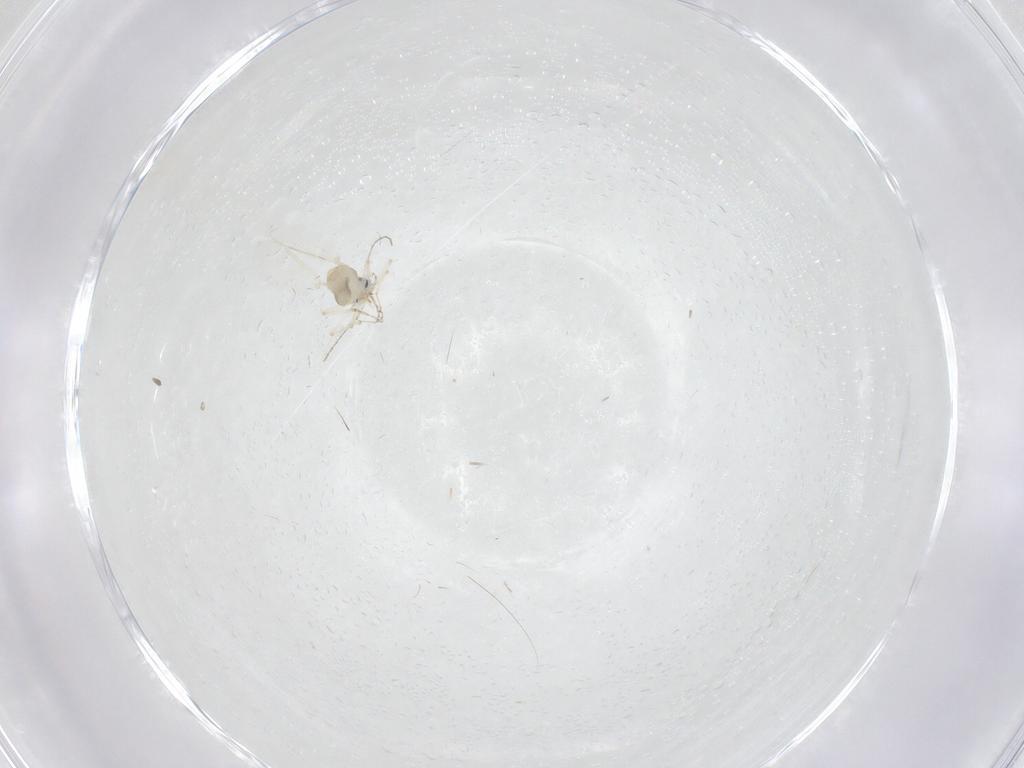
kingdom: Animalia
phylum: Arthropoda
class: Insecta
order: Diptera
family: Ceratopogonidae
